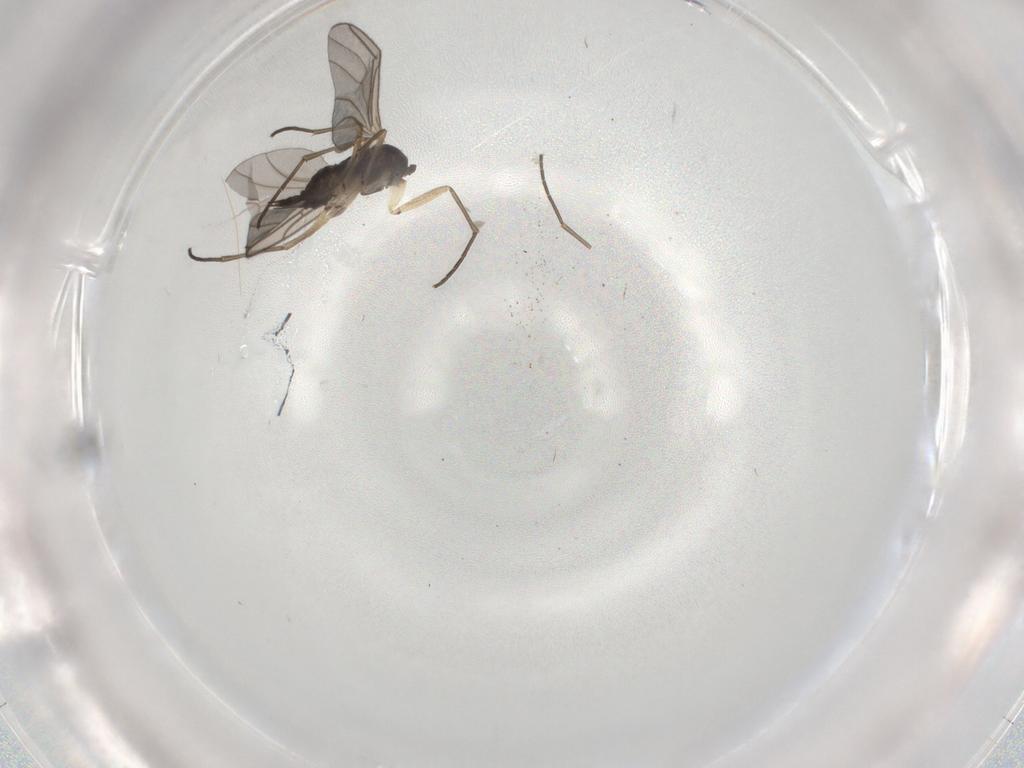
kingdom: Animalia
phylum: Arthropoda
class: Insecta
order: Diptera
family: Sciaridae
